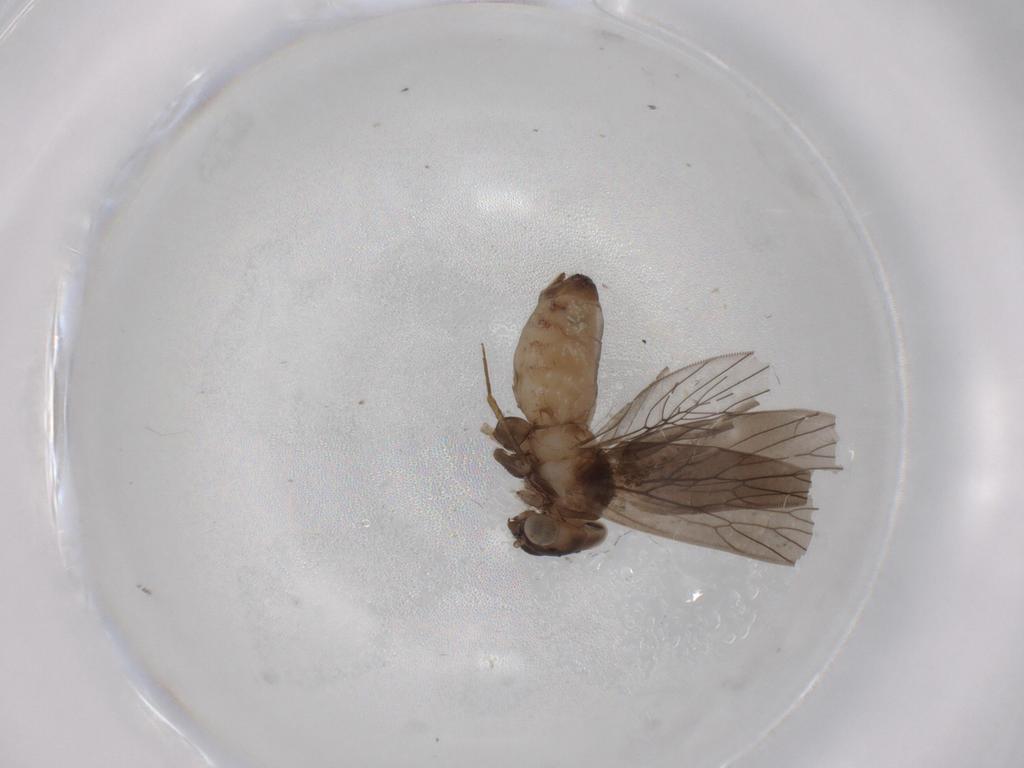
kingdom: Animalia
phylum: Arthropoda
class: Insecta
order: Psocodea
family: Lepidopsocidae
